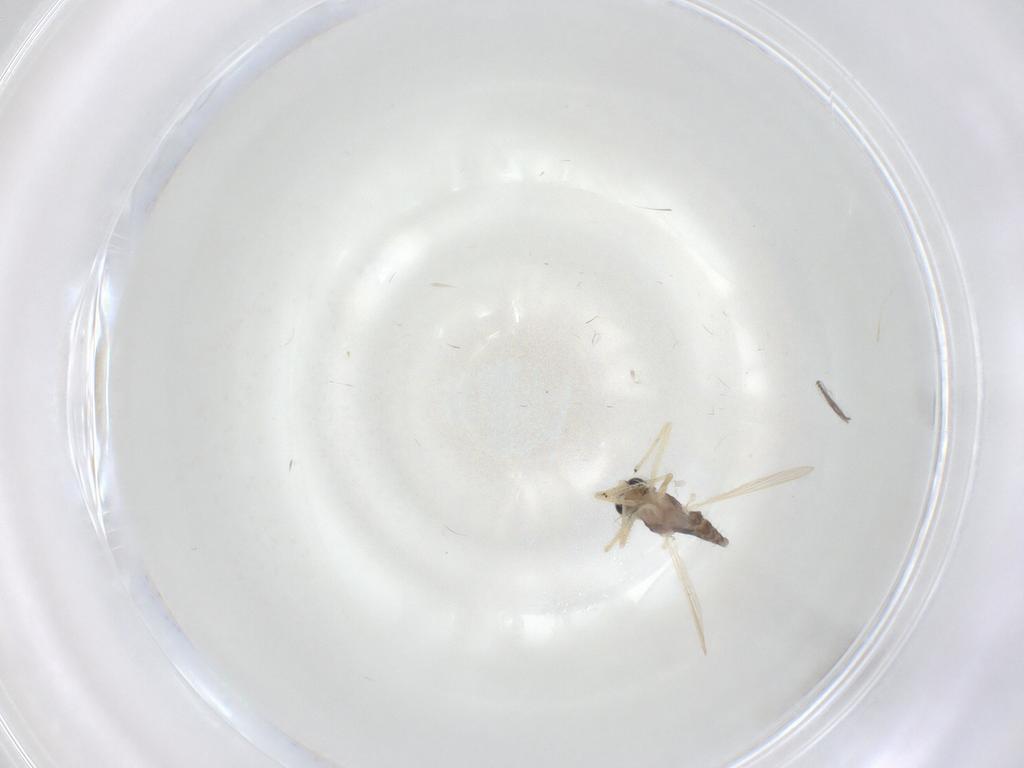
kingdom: Animalia
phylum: Arthropoda
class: Insecta
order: Diptera
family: Chironomidae
